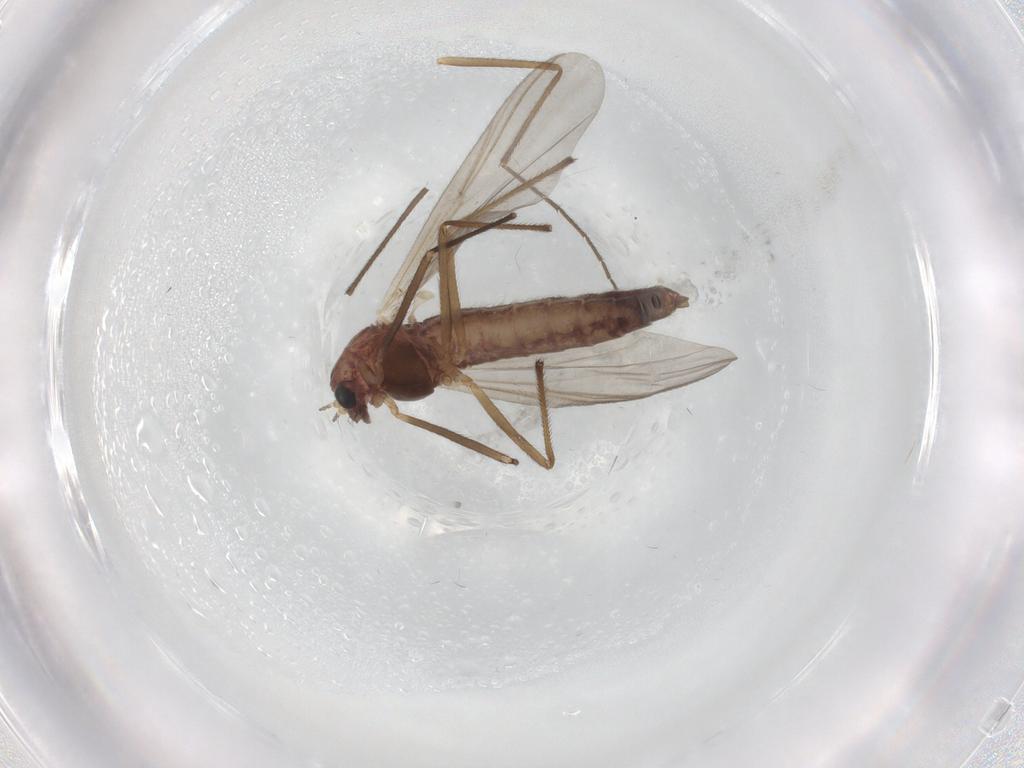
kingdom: Animalia
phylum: Arthropoda
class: Insecta
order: Diptera
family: Chironomidae
